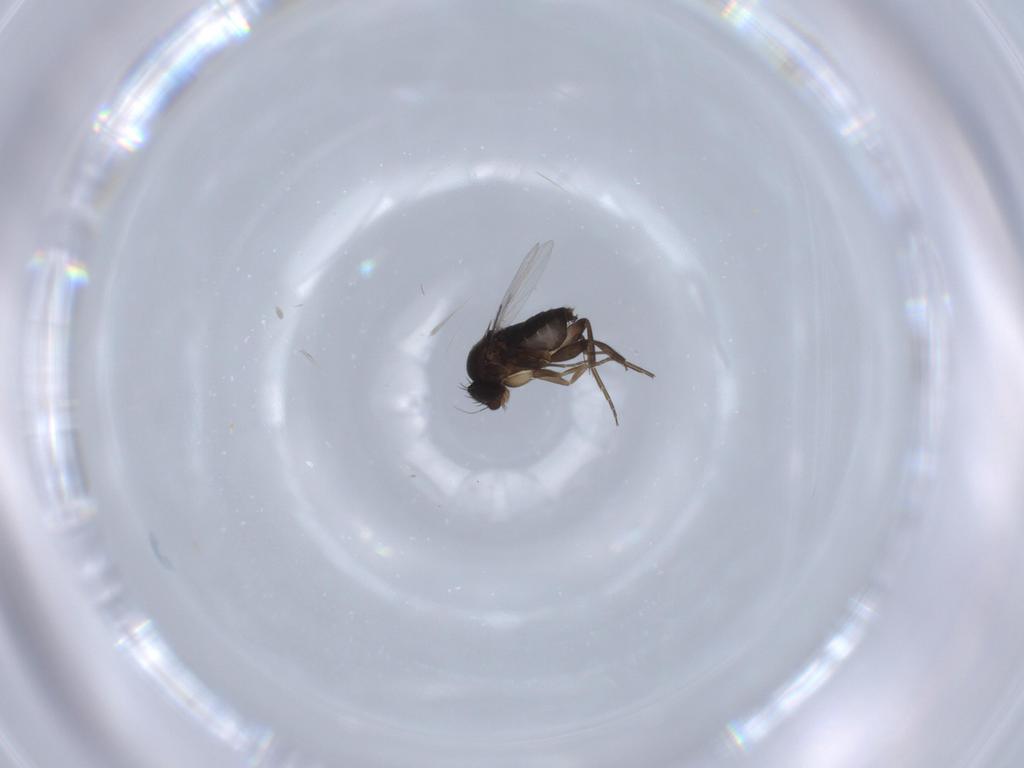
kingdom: Animalia
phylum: Arthropoda
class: Insecta
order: Diptera
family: Phoridae
